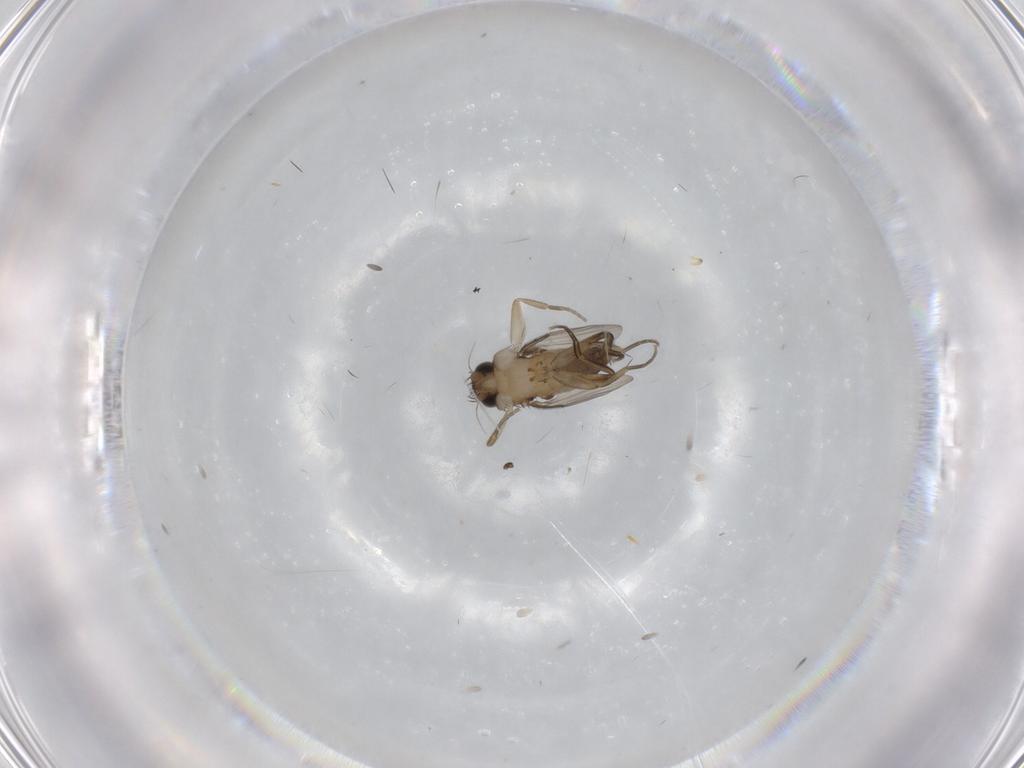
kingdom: Animalia
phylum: Arthropoda
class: Insecta
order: Diptera
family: Phoridae
